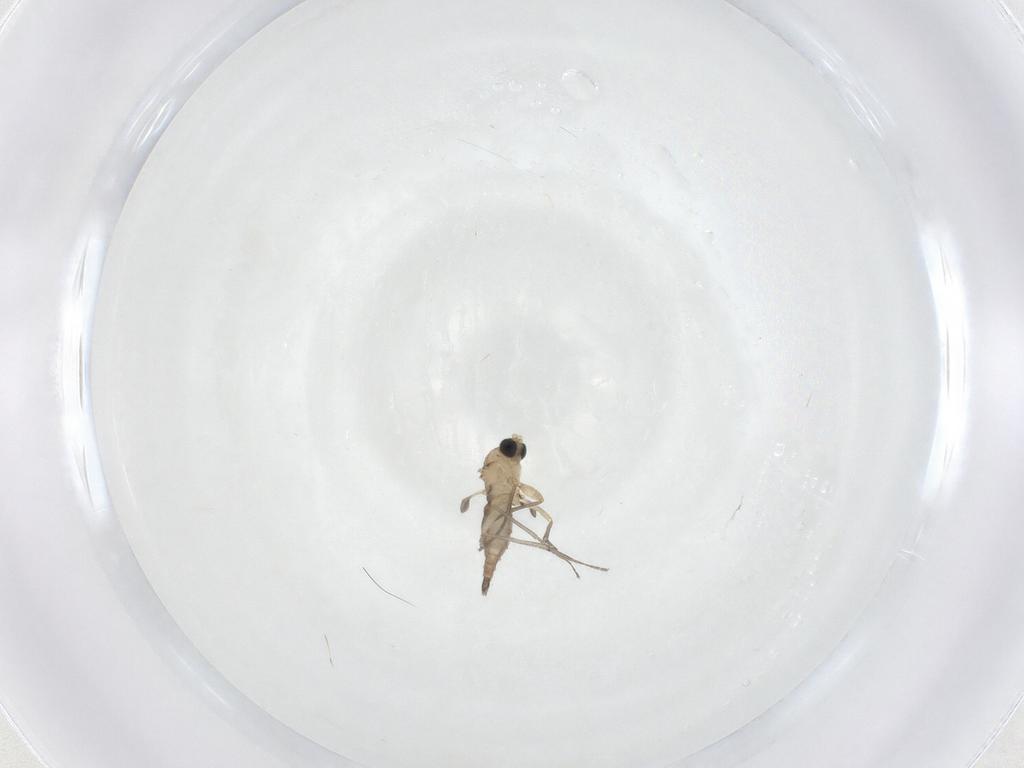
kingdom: Animalia
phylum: Arthropoda
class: Insecta
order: Diptera
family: Sciaridae
